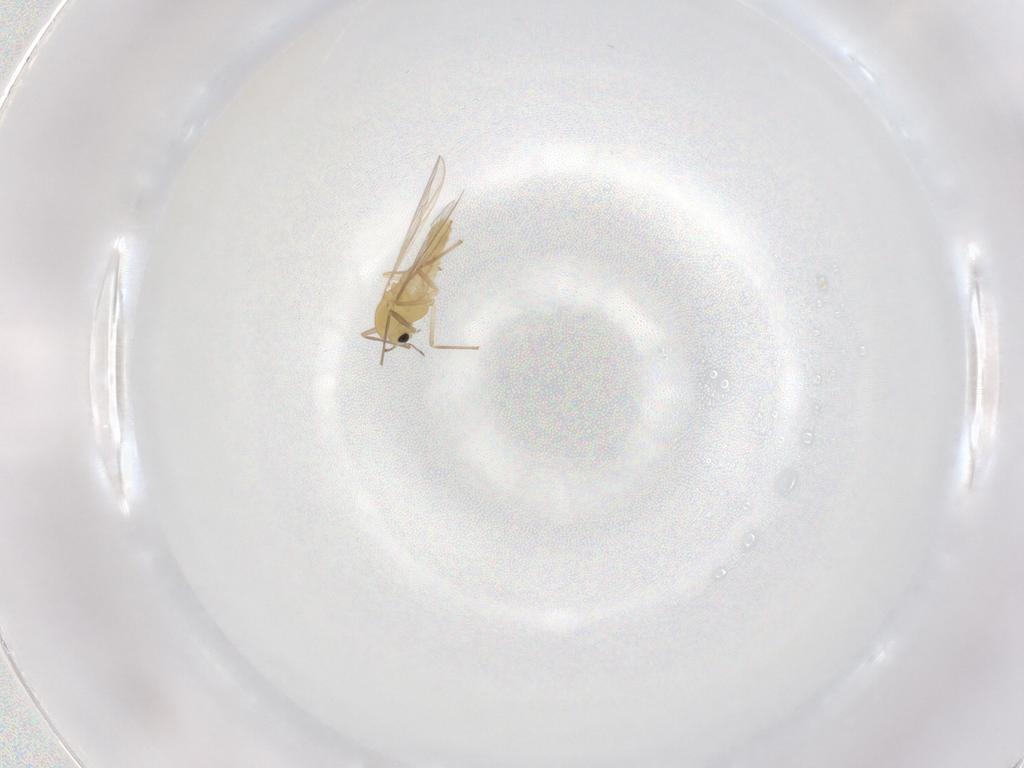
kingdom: Animalia
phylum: Arthropoda
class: Insecta
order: Diptera
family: Chironomidae
